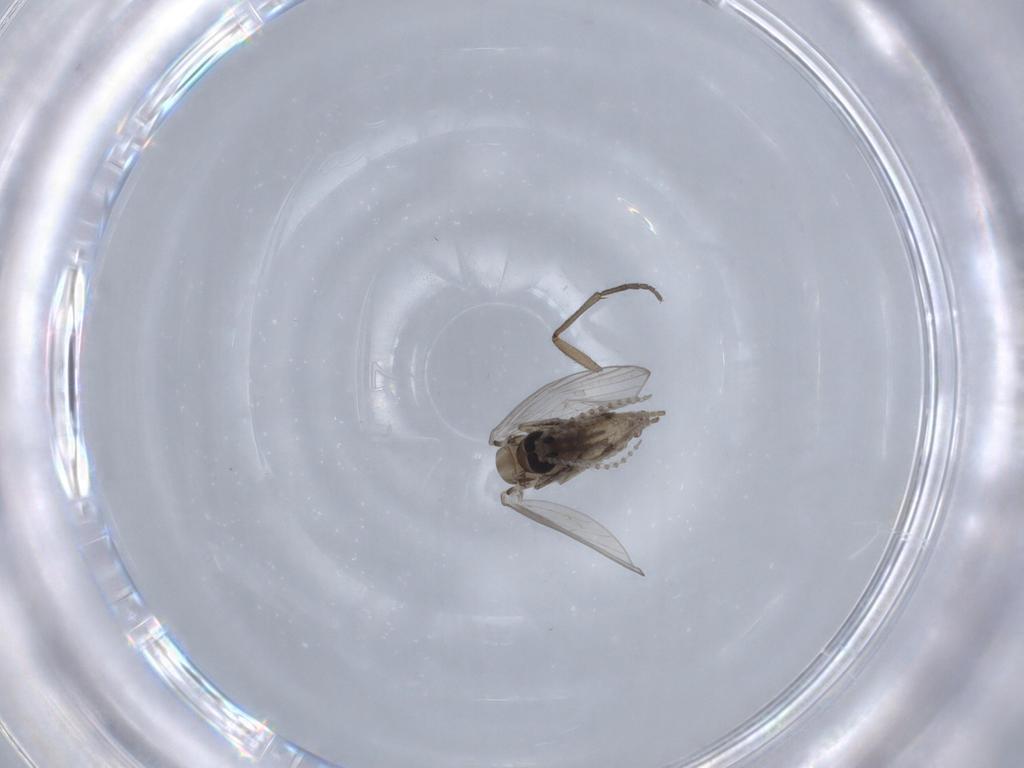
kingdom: Animalia
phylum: Arthropoda
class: Insecta
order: Diptera
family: Psychodidae
